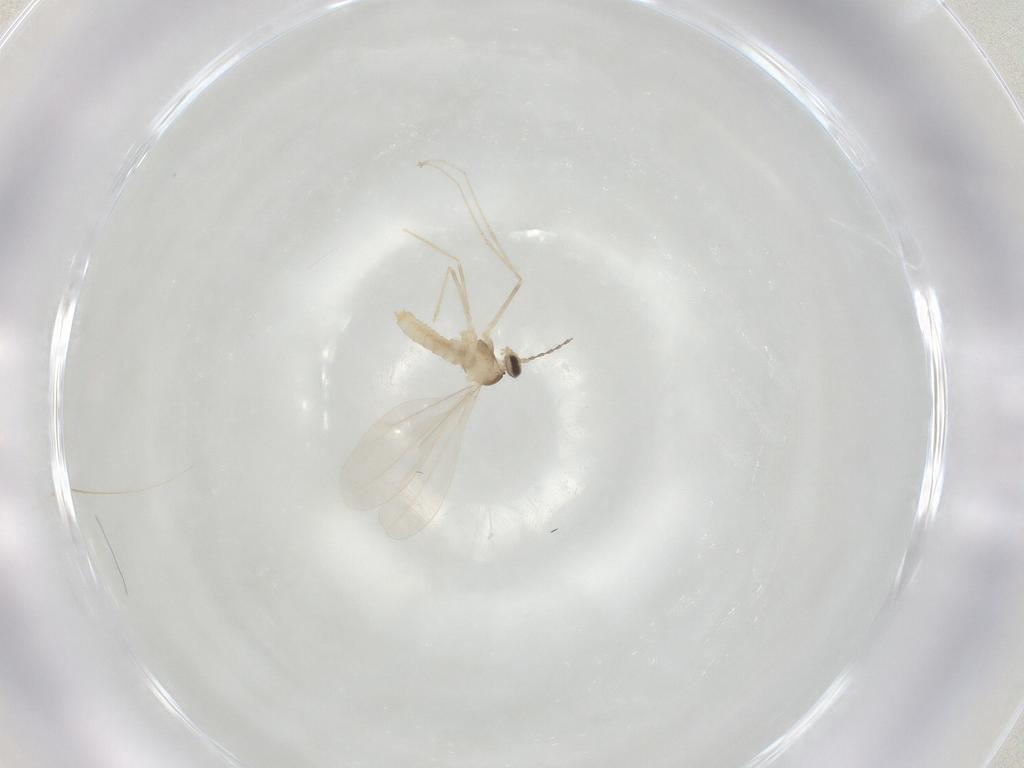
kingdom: Animalia
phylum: Arthropoda
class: Insecta
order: Diptera
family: Cecidomyiidae
